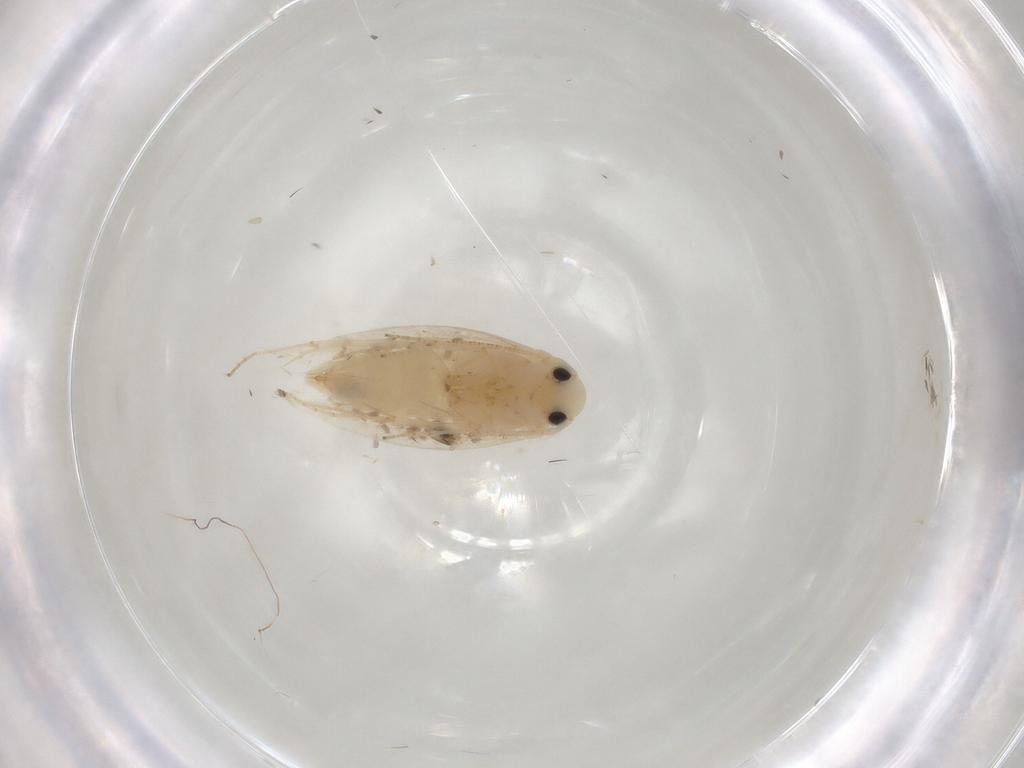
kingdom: Animalia
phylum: Arthropoda
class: Insecta
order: Lepidoptera
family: Gracillariidae
